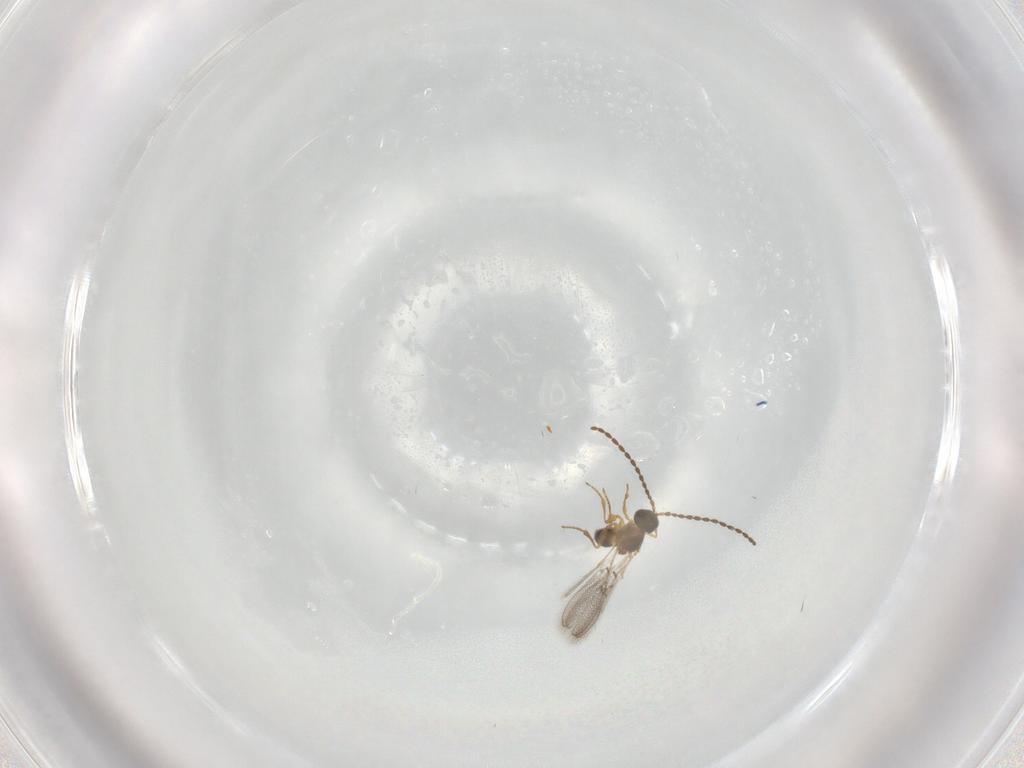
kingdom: Animalia
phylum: Arthropoda
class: Insecta
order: Hymenoptera
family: Figitidae
